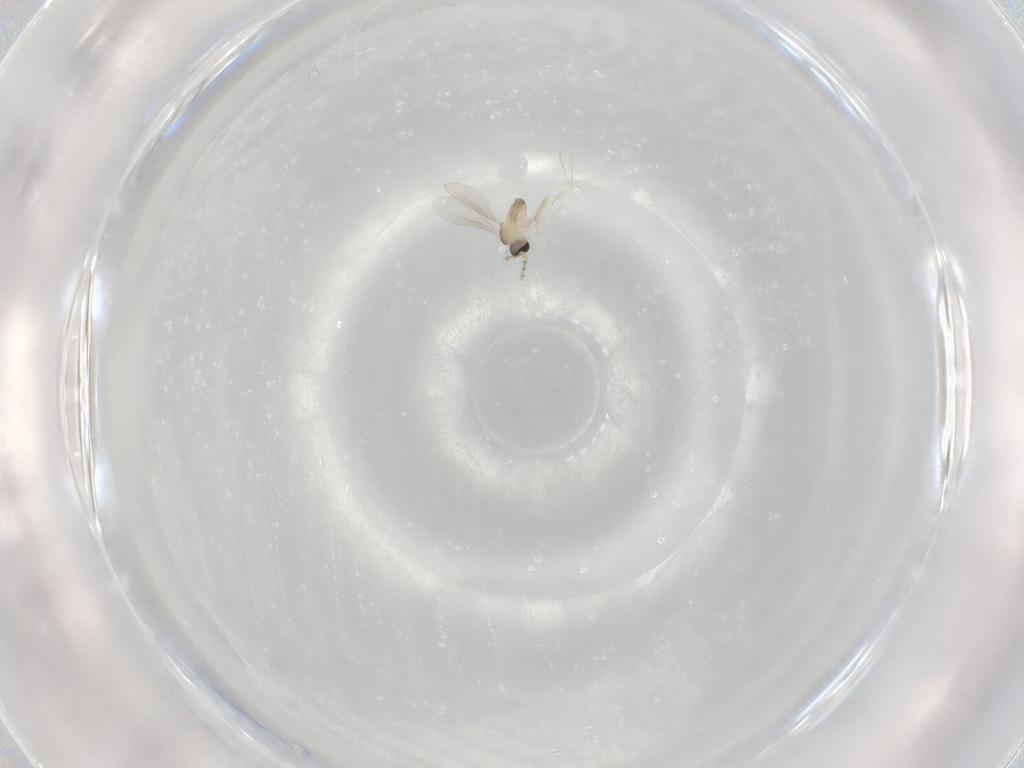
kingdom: Animalia
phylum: Arthropoda
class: Insecta
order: Diptera
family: Cecidomyiidae
